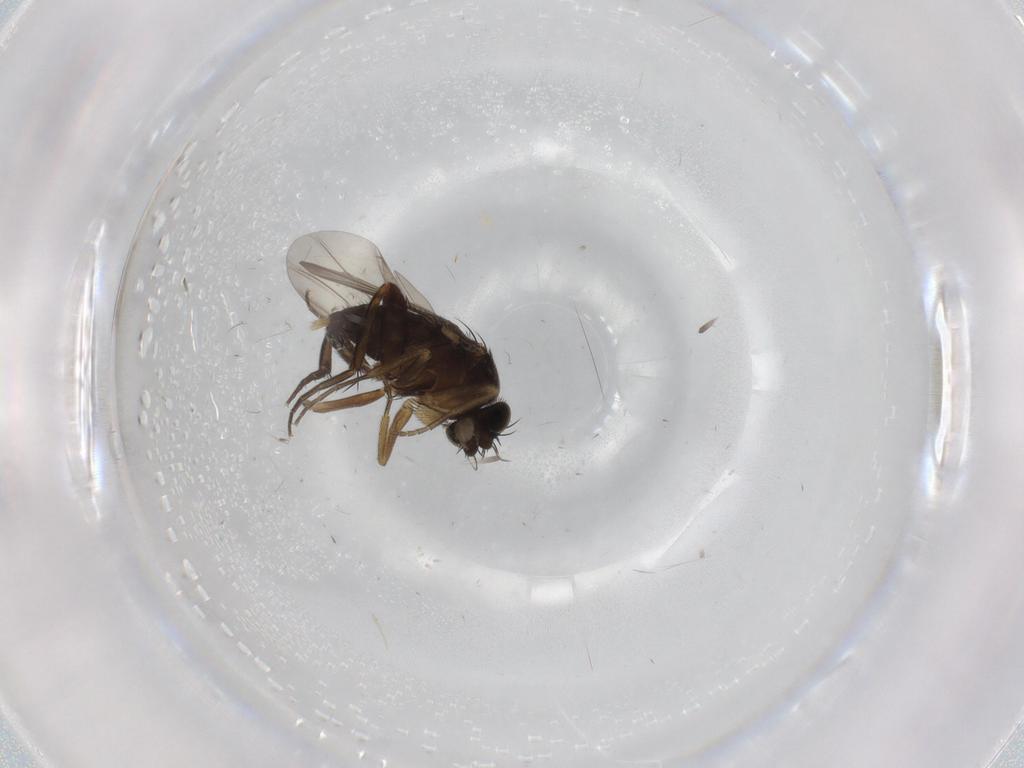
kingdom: Animalia
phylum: Arthropoda
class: Insecta
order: Diptera
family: Phoridae
